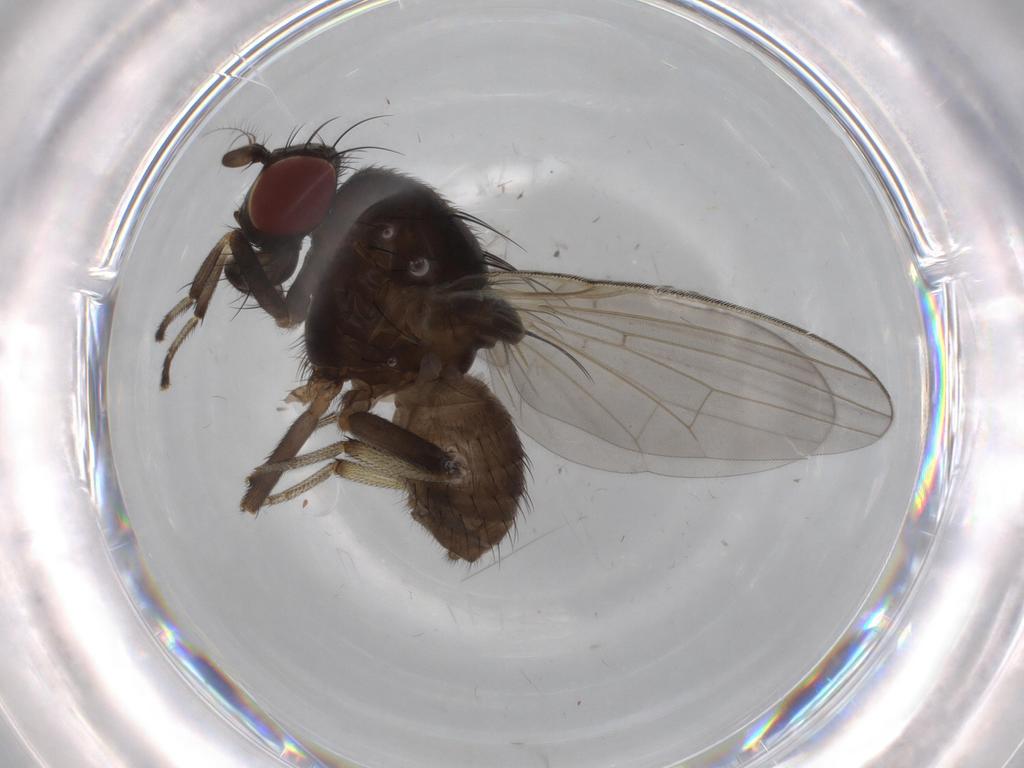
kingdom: Animalia
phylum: Arthropoda
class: Insecta
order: Diptera
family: Lauxaniidae
